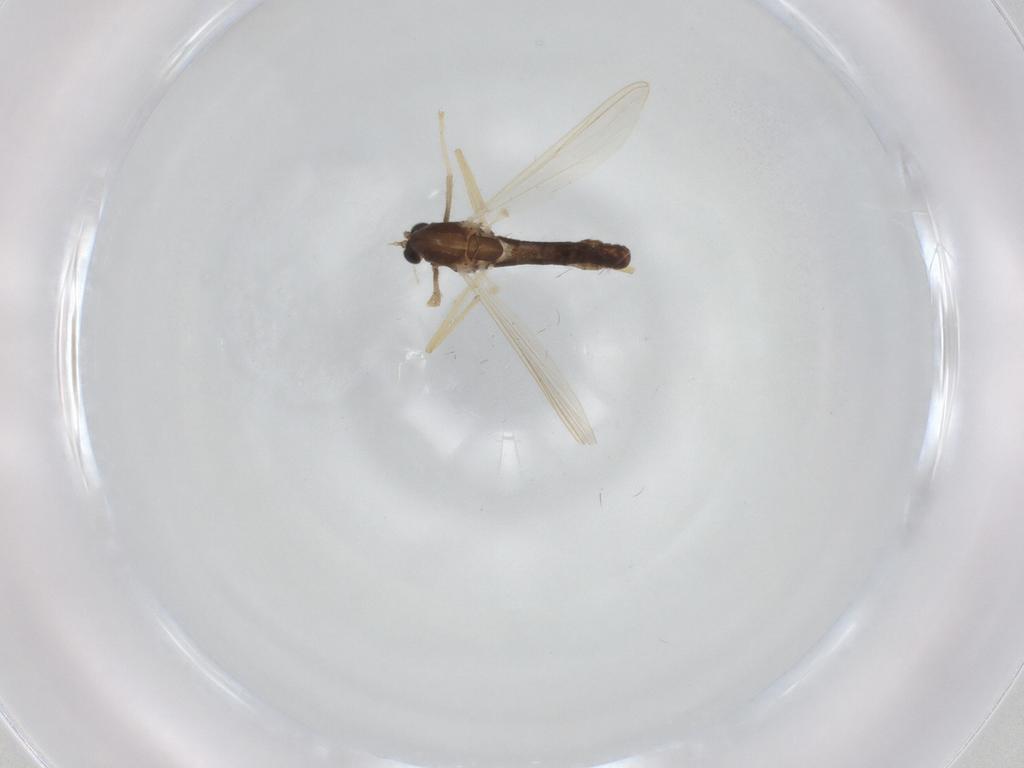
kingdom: Animalia
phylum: Arthropoda
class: Insecta
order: Diptera
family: Chironomidae
